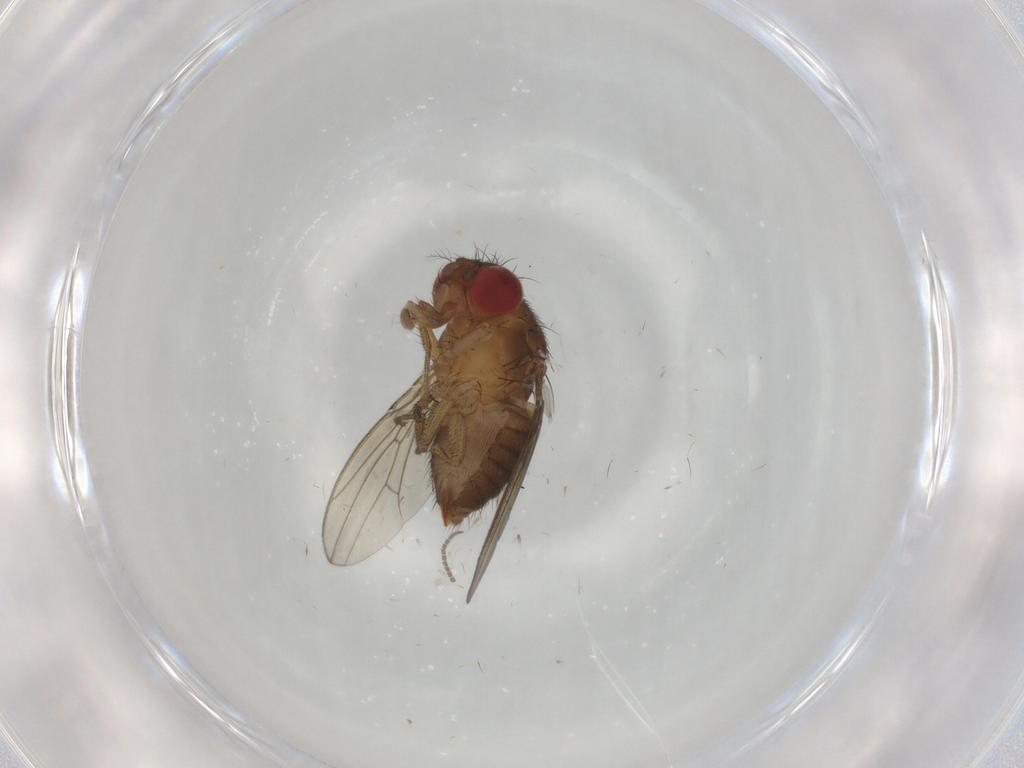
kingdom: Animalia
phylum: Arthropoda
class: Insecta
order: Diptera
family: Drosophilidae
